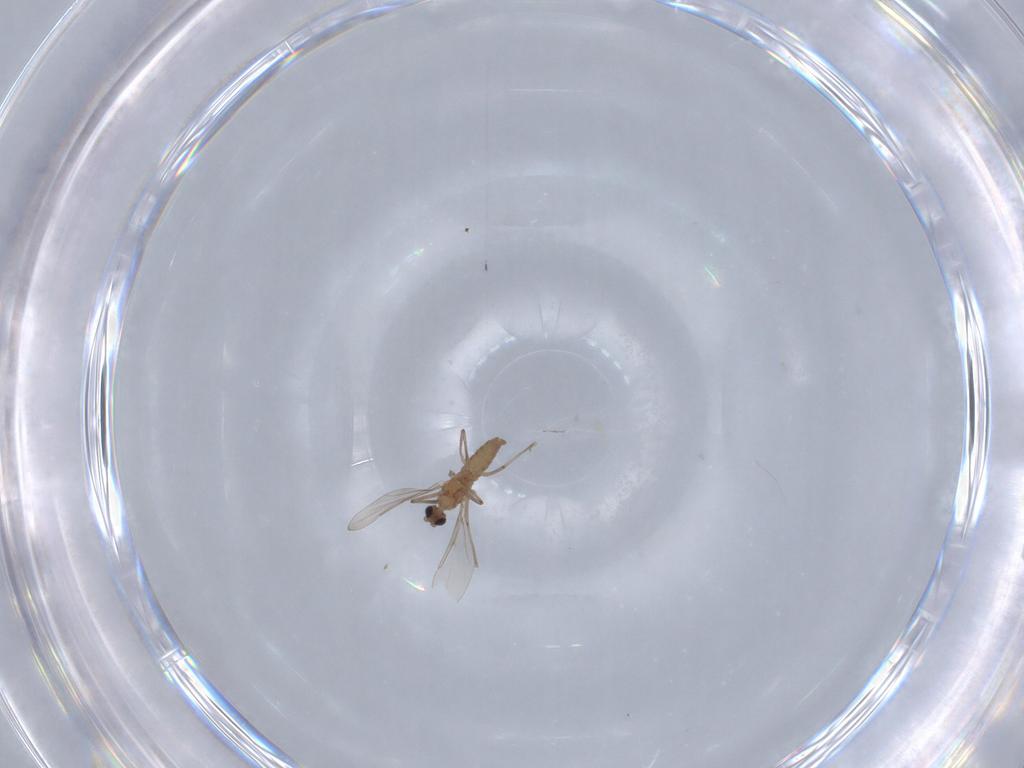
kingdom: Animalia
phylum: Arthropoda
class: Insecta
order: Diptera
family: Cecidomyiidae
